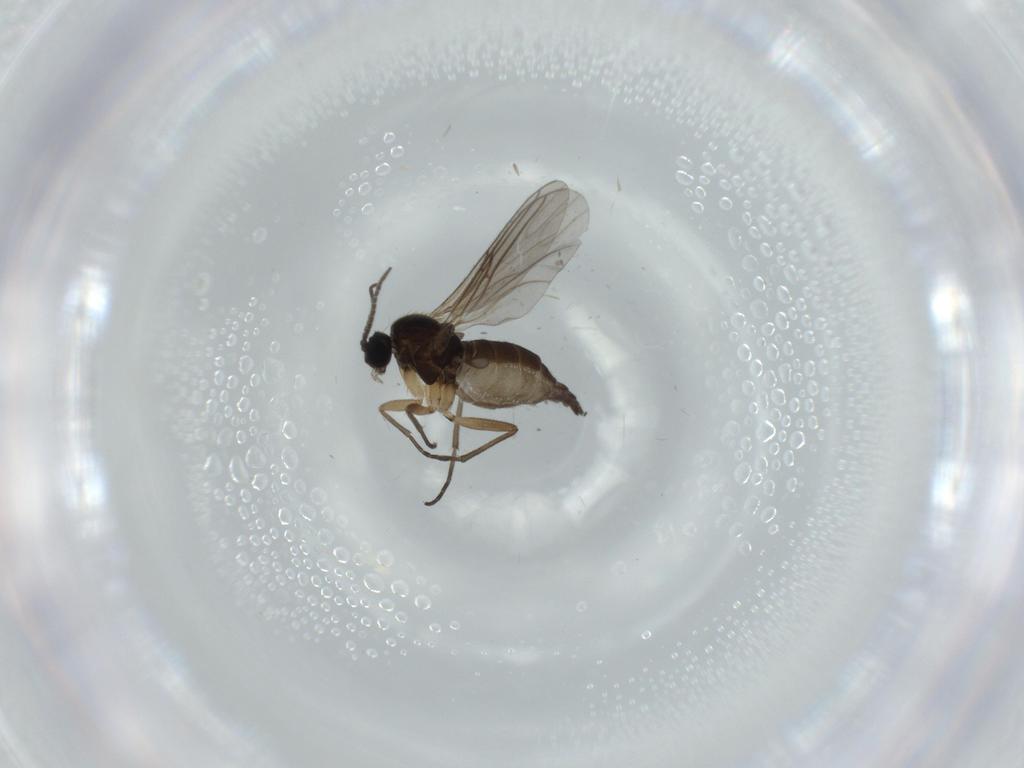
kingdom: Animalia
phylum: Arthropoda
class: Insecta
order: Diptera
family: Sciaridae
